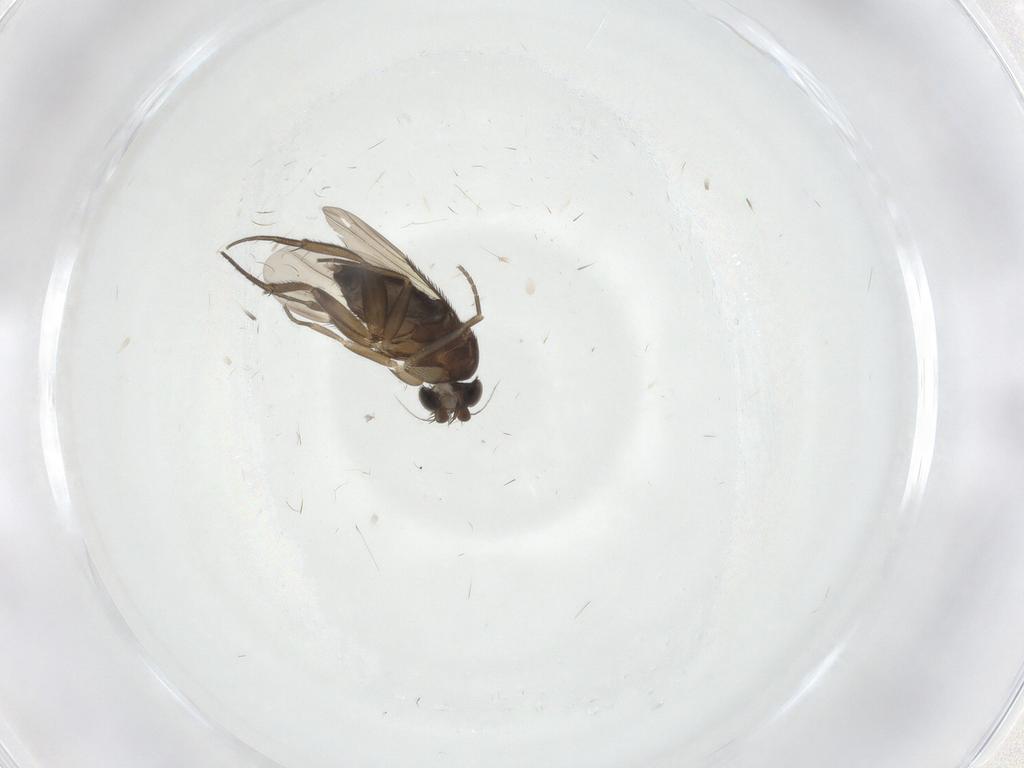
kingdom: Animalia
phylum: Arthropoda
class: Insecta
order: Diptera
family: Phoridae
